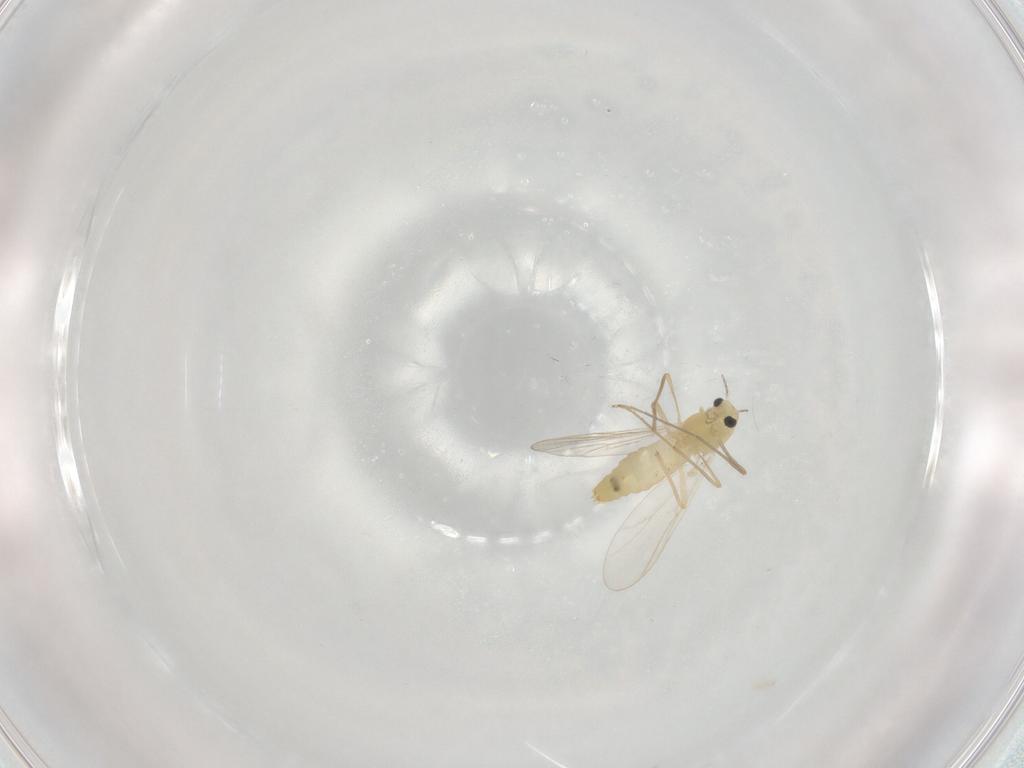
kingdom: Animalia
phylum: Arthropoda
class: Insecta
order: Diptera
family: Chironomidae
